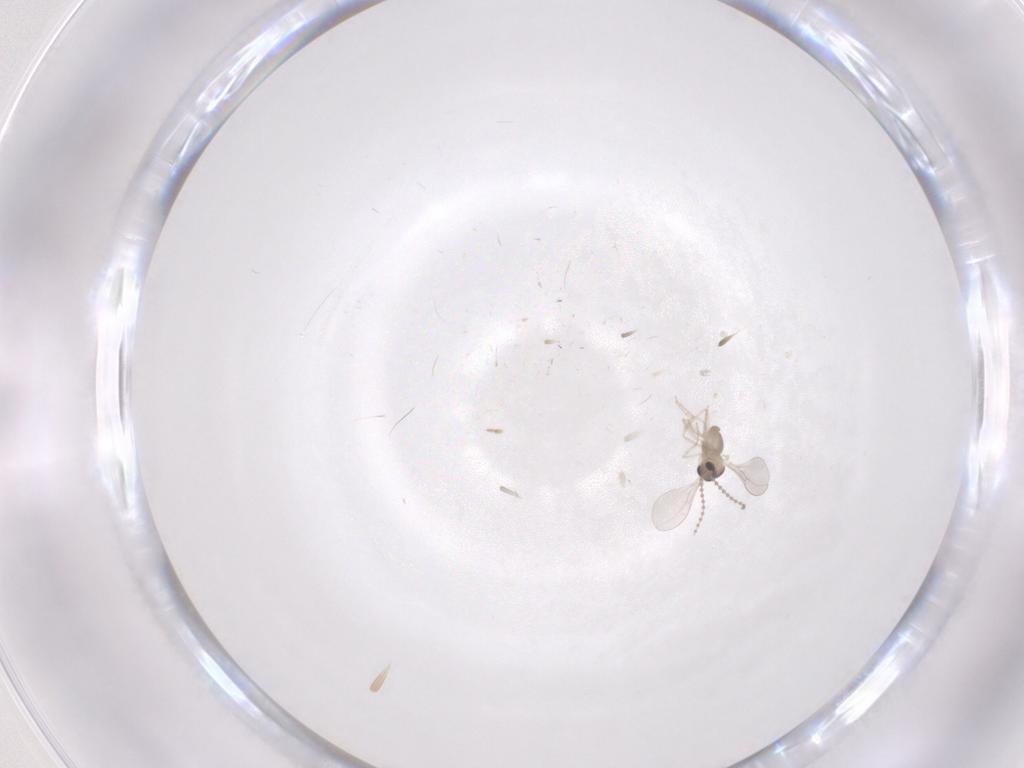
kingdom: Animalia
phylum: Arthropoda
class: Insecta
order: Diptera
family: Cecidomyiidae
